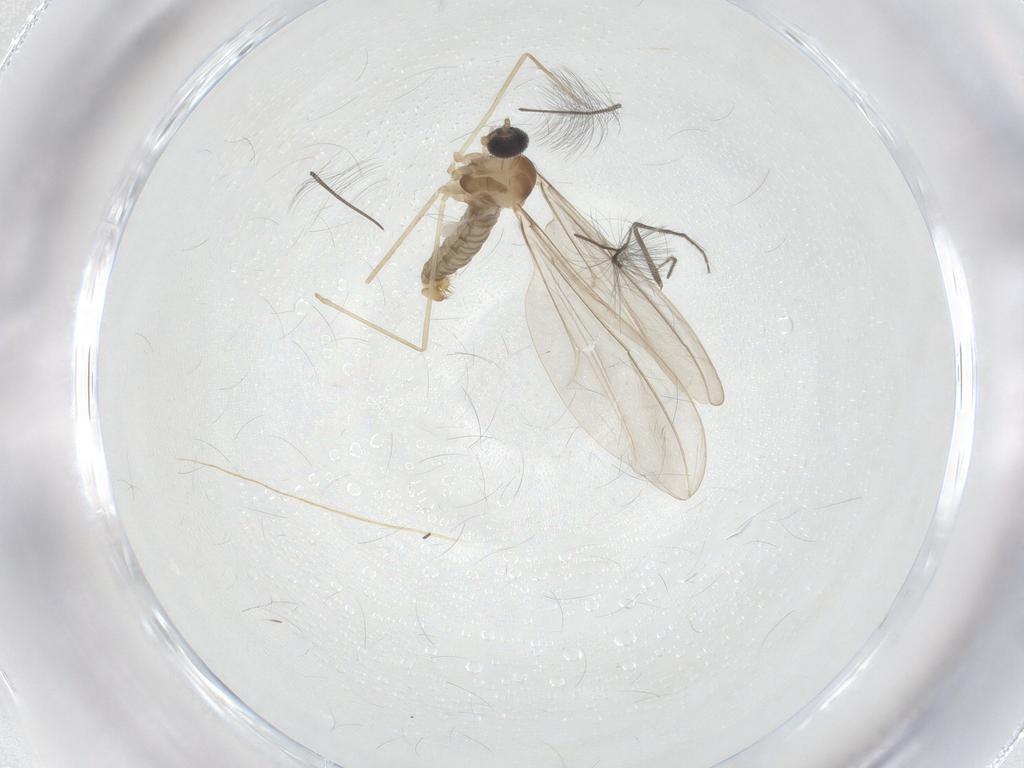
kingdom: Animalia
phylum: Arthropoda
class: Insecta
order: Diptera
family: Cecidomyiidae
